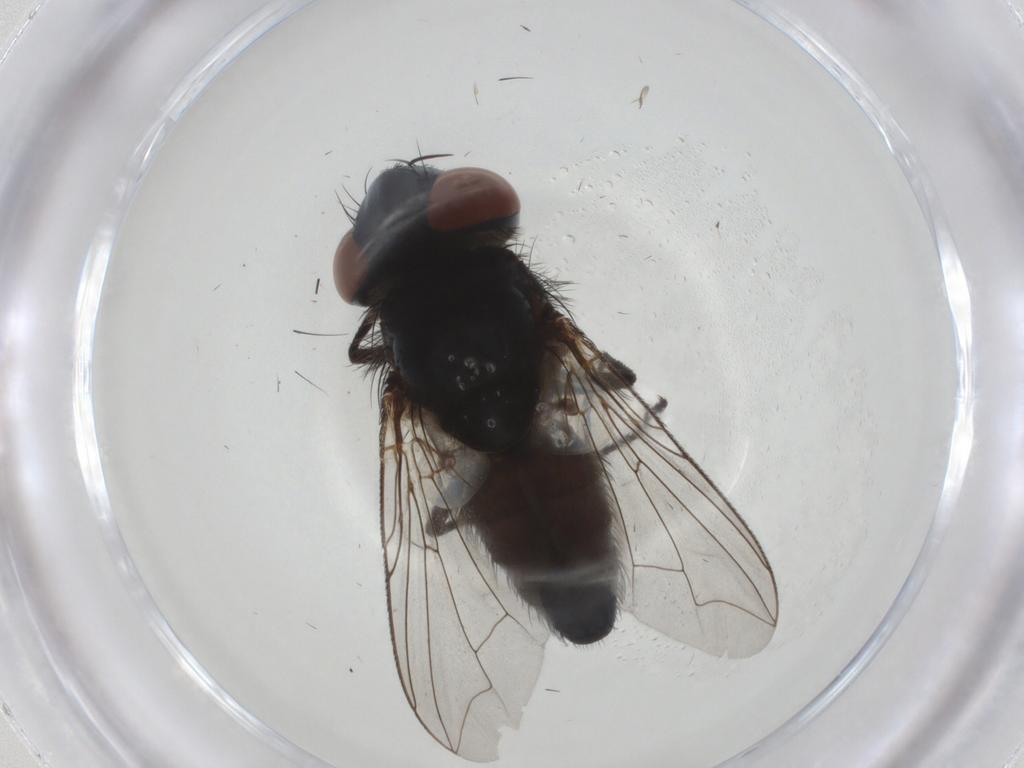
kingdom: Animalia
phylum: Arthropoda
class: Insecta
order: Diptera
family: Sarcophagidae
